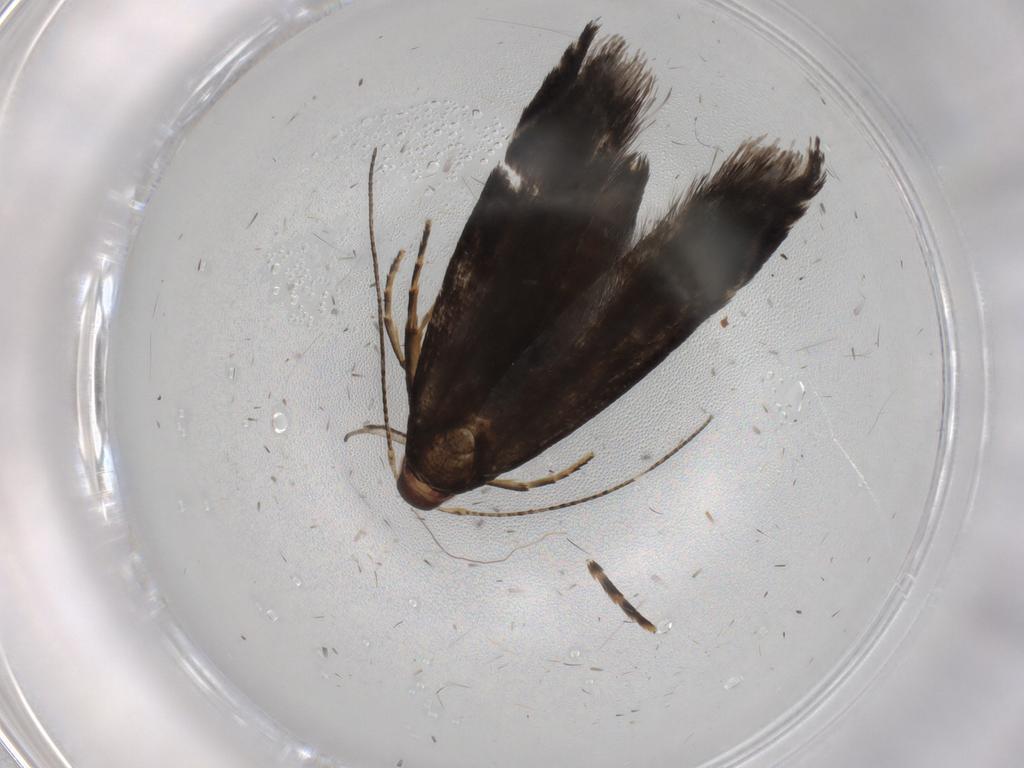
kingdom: Animalia
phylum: Arthropoda
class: Insecta
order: Lepidoptera
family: Gelechiidae
